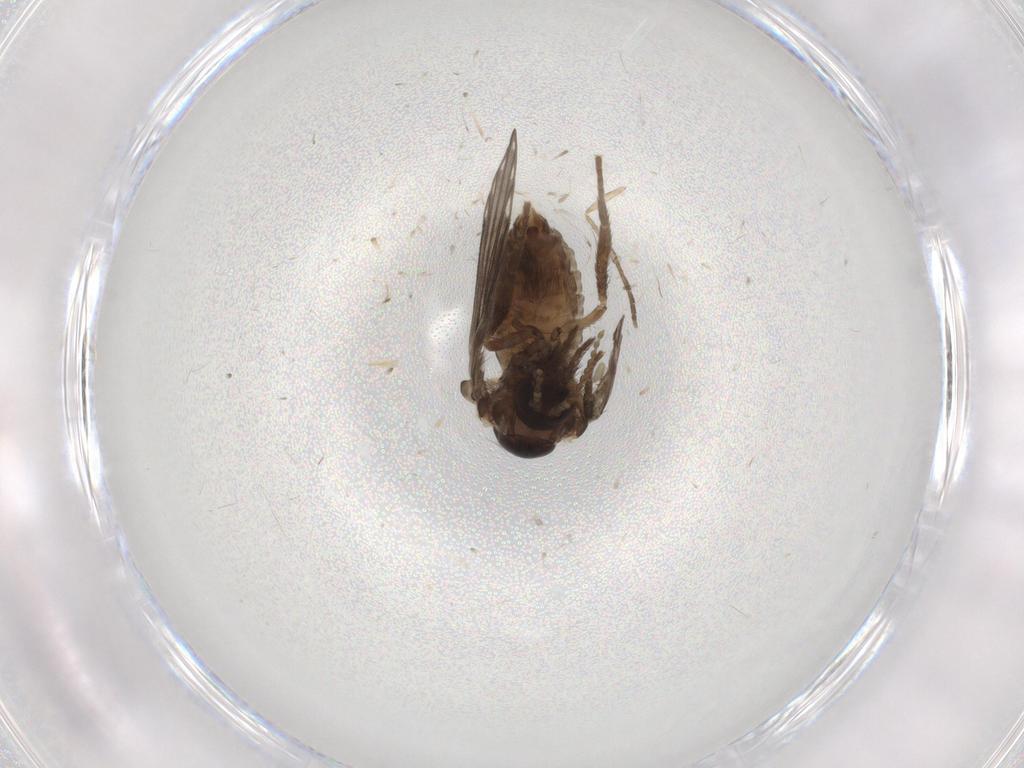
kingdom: Animalia
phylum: Arthropoda
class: Insecta
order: Diptera
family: Psychodidae
